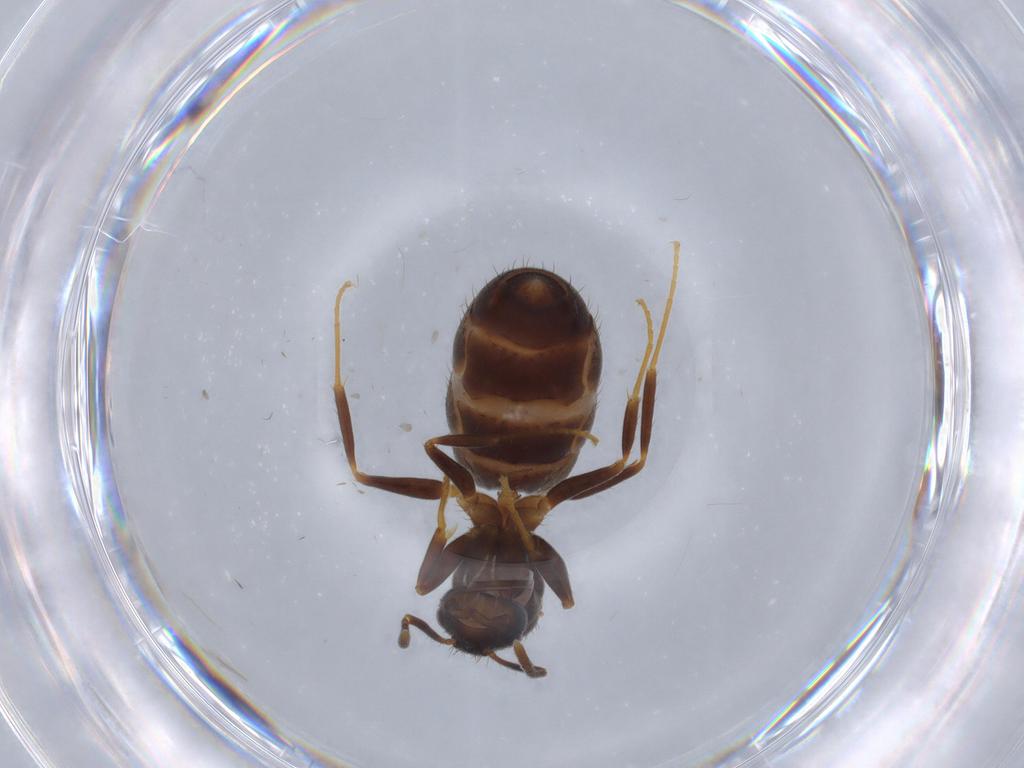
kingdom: Animalia
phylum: Arthropoda
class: Insecta
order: Hymenoptera
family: Formicidae
